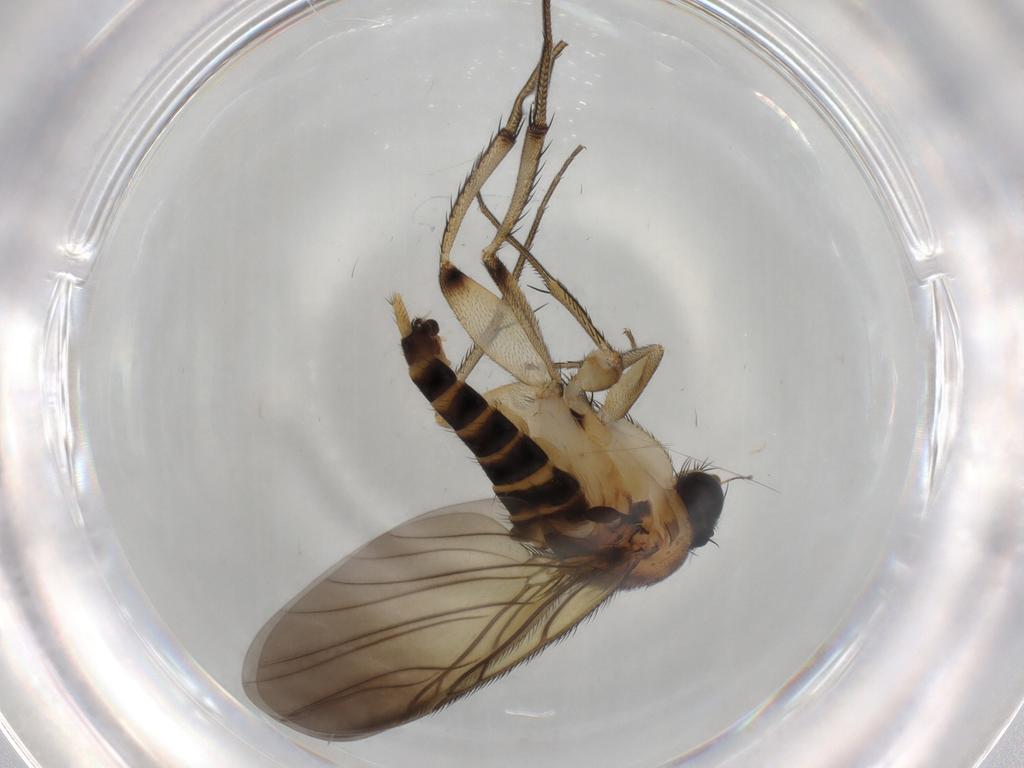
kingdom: Animalia
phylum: Arthropoda
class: Insecta
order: Diptera
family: Phoridae
